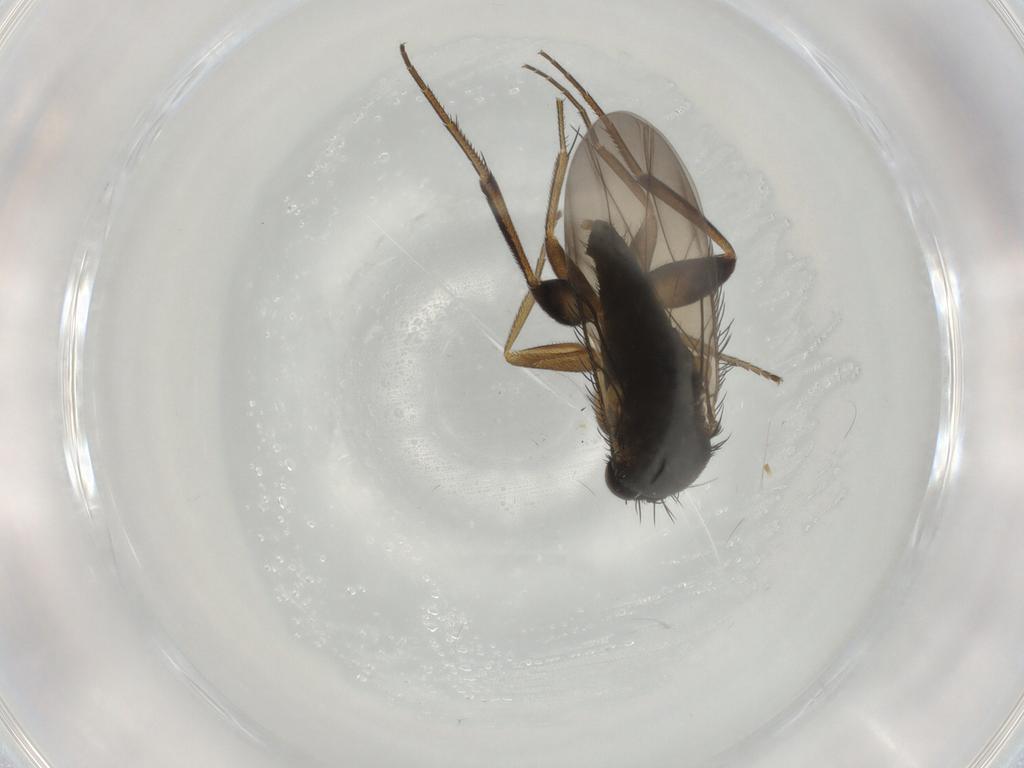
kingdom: Animalia
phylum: Arthropoda
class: Insecta
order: Diptera
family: Phoridae
